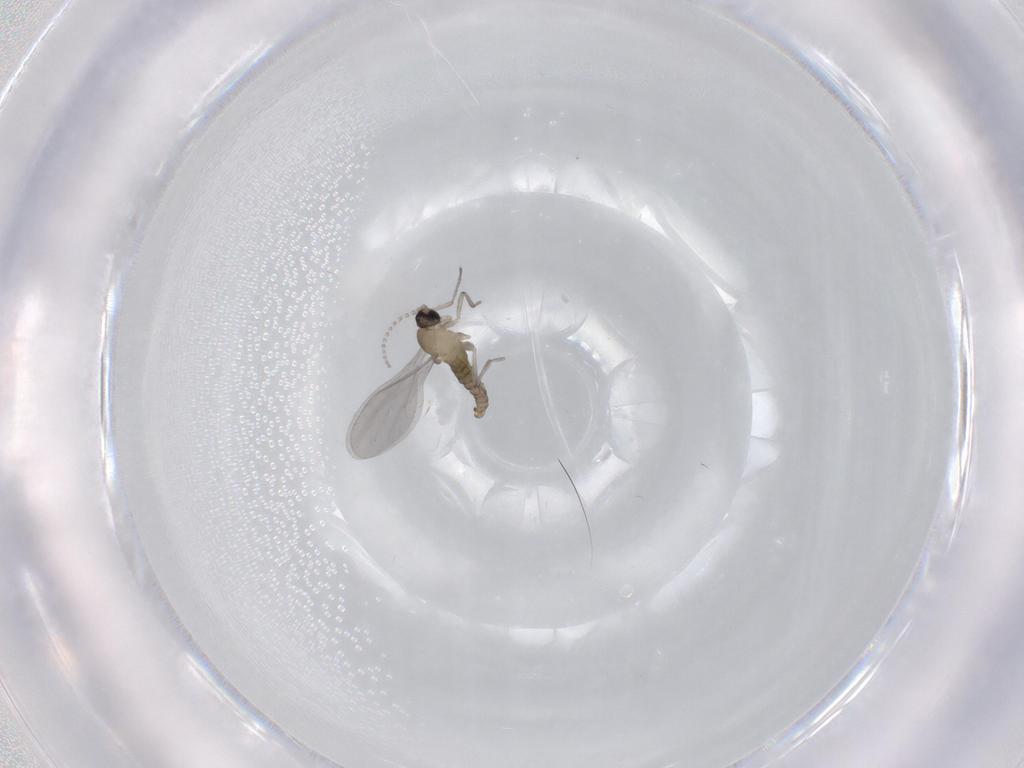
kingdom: Animalia
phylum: Arthropoda
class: Insecta
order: Diptera
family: Cecidomyiidae
